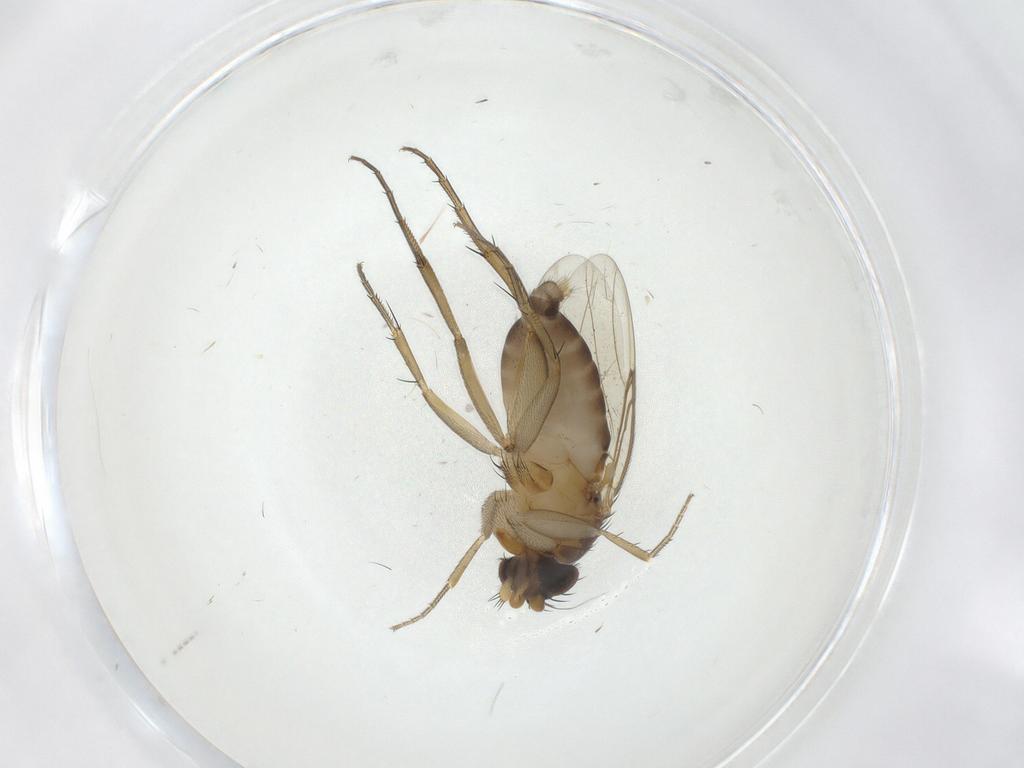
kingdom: Animalia
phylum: Arthropoda
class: Insecta
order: Diptera
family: Phoridae
